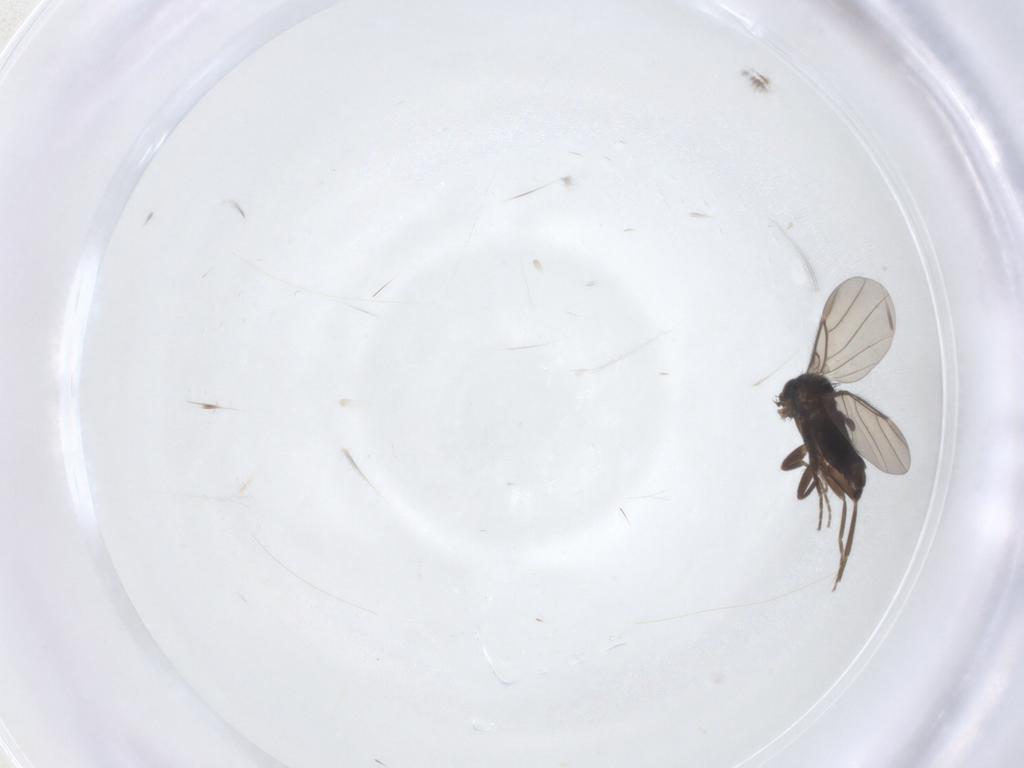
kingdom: Animalia
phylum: Arthropoda
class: Insecta
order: Diptera
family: Phoridae
